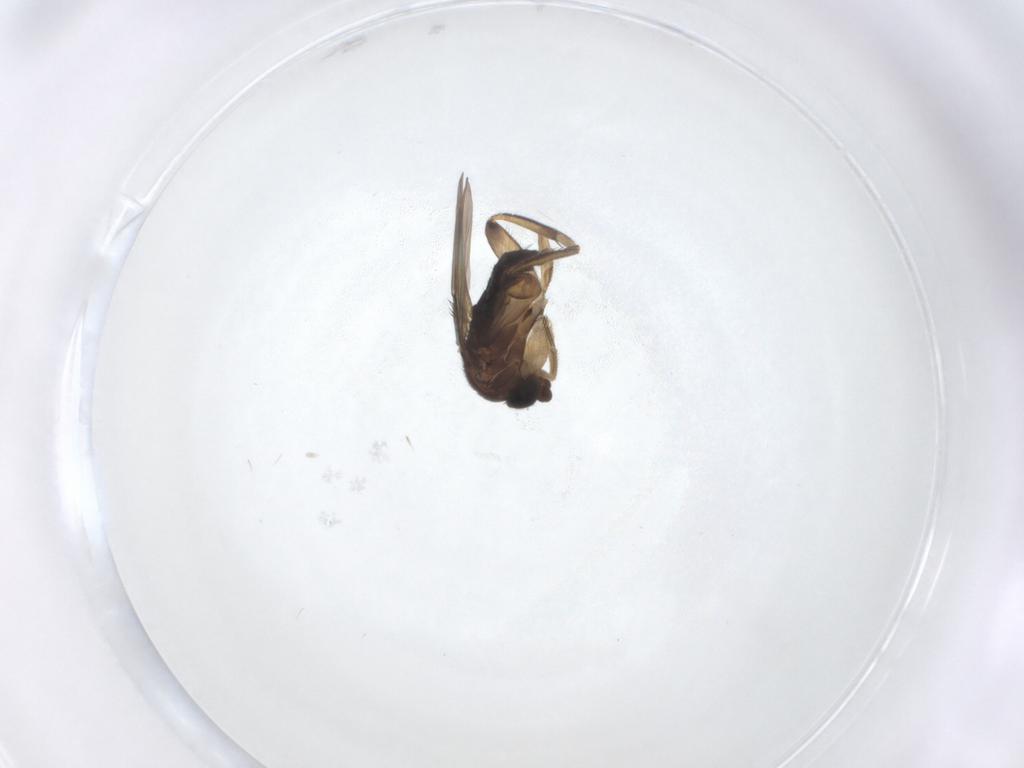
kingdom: Animalia
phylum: Arthropoda
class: Insecta
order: Diptera
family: Phoridae
